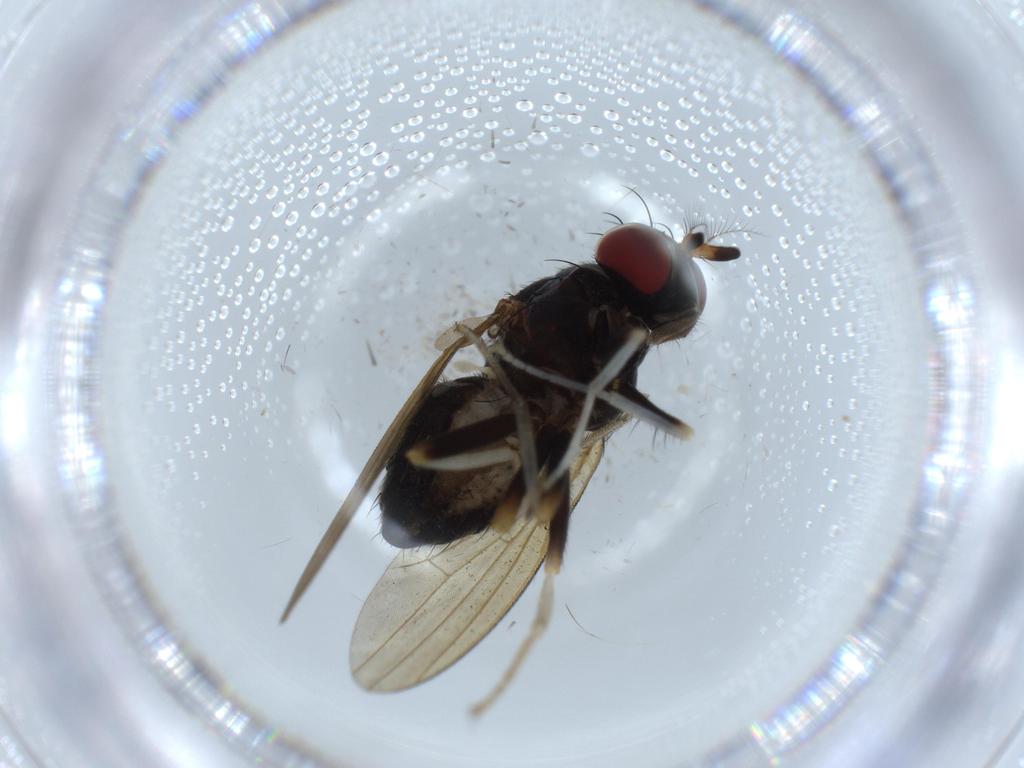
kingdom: Animalia
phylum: Arthropoda
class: Insecta
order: Diptera
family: Lauxaniidae
